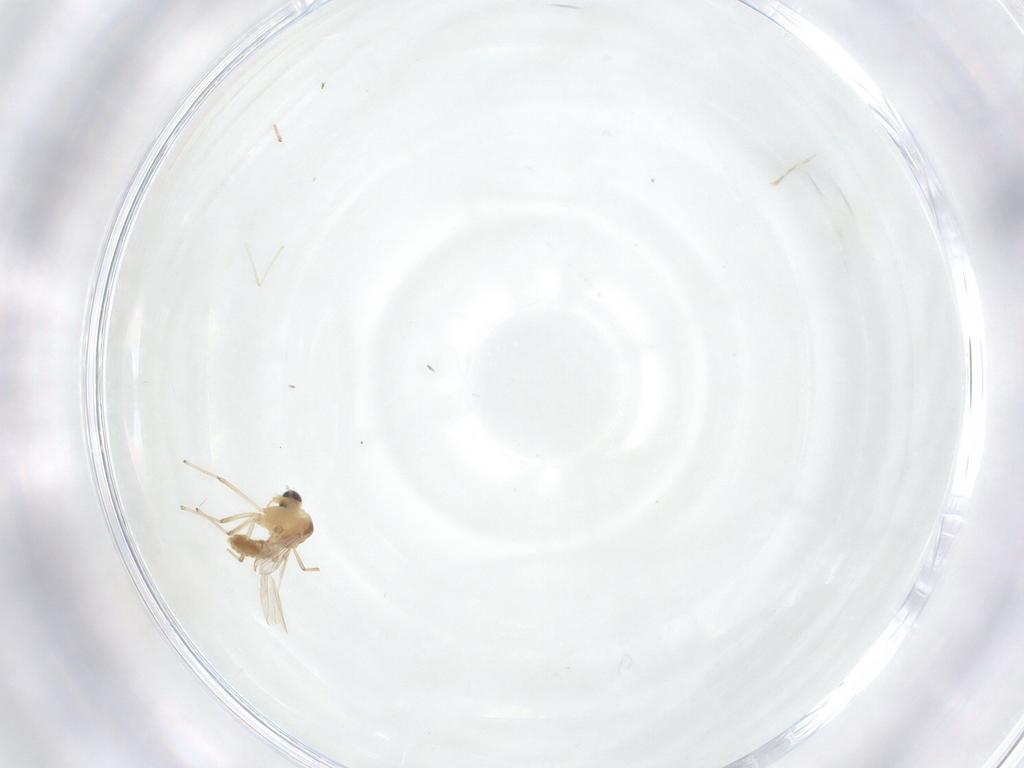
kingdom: Animalia
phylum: Arthropoda
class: Insecta
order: Diptera
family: Chironomidae
